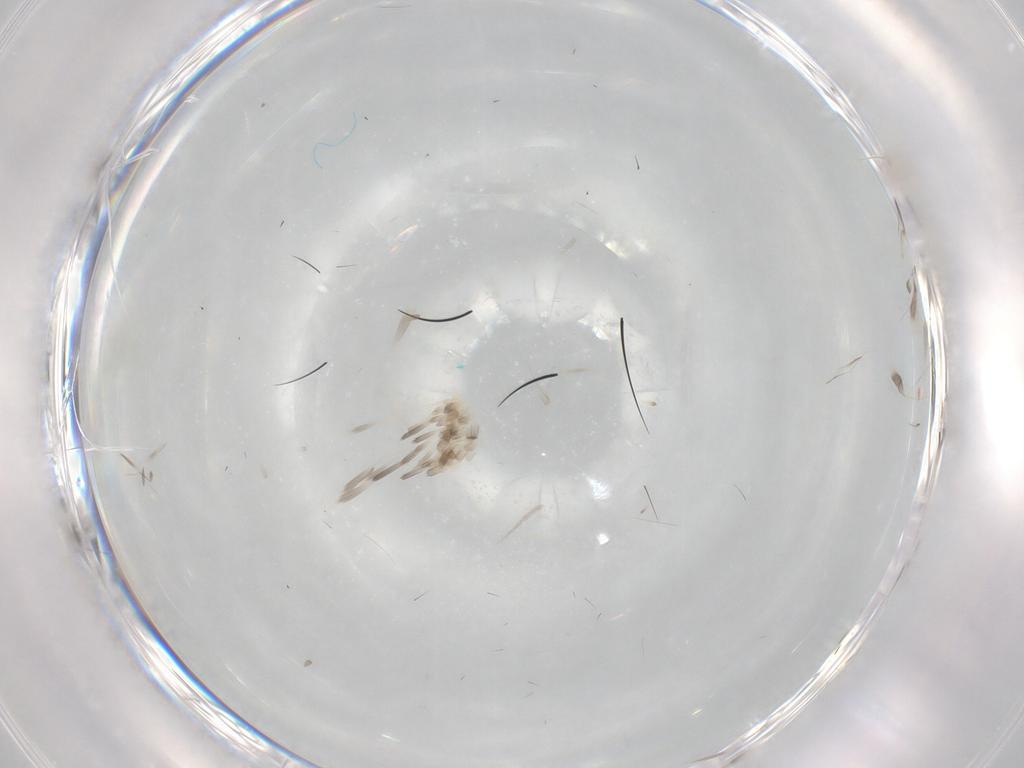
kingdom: Animalia
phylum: Arthropoda
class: Insecta
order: Lepidoptera
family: Oecophoridae
